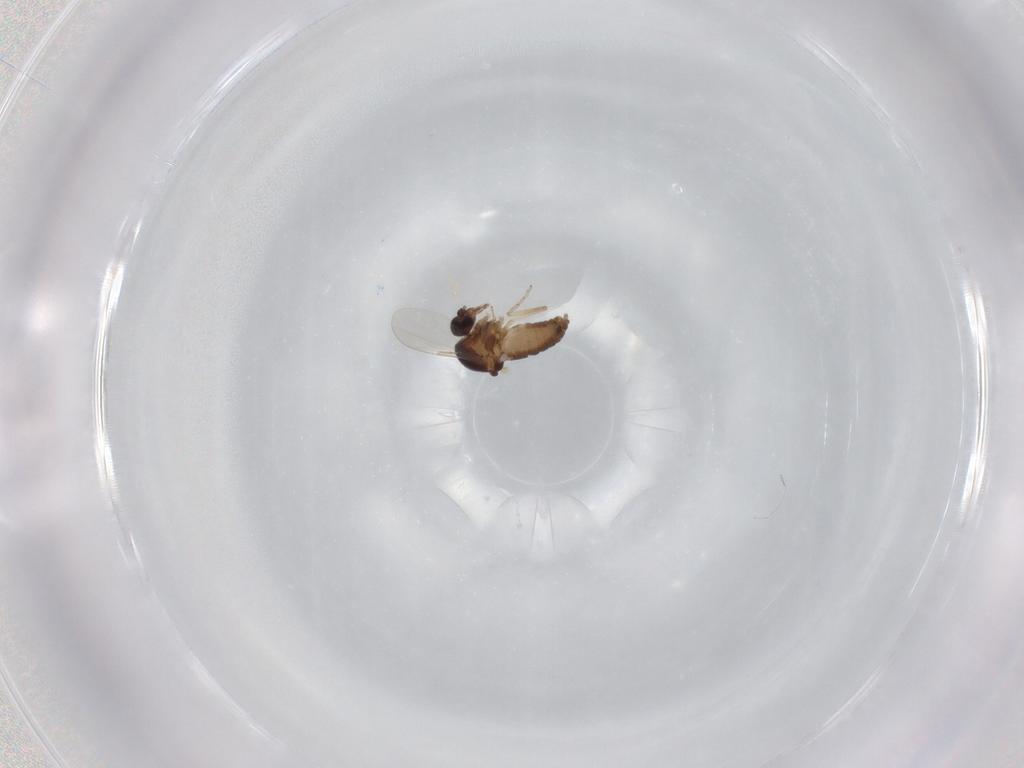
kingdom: Animalia
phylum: Arthropoda
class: Insecta
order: Diptera
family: Ceratopogonidae
